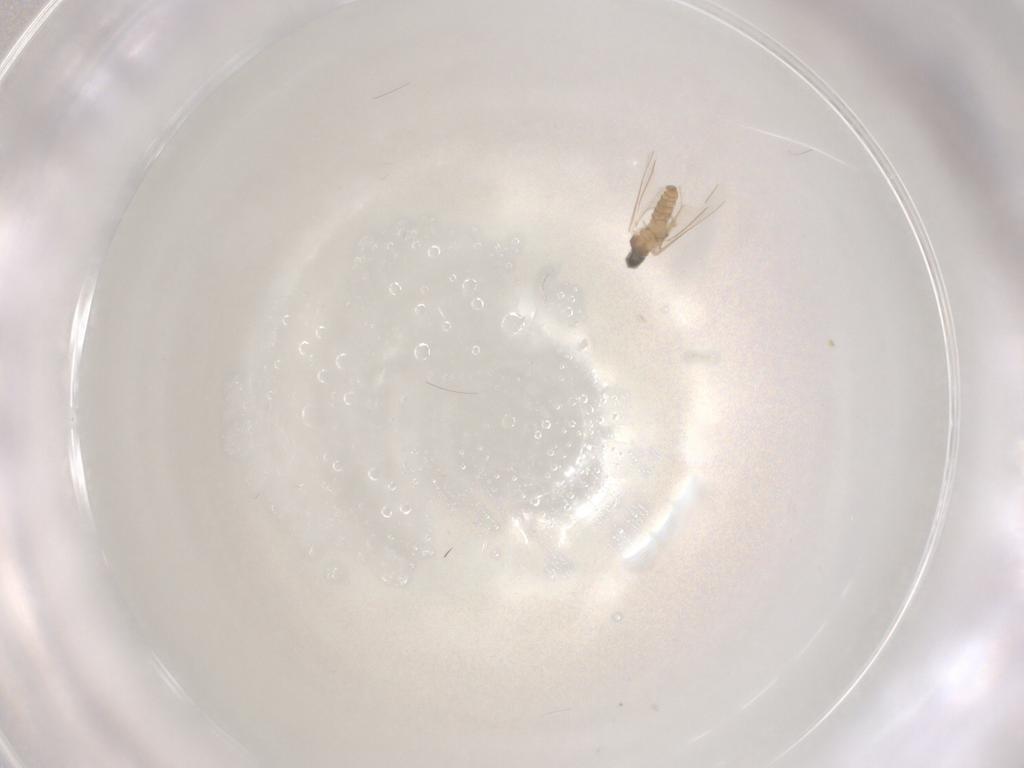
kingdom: Animalia
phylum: Arthropoda
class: Insecta
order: Diptera
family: Cecidomyiidae
